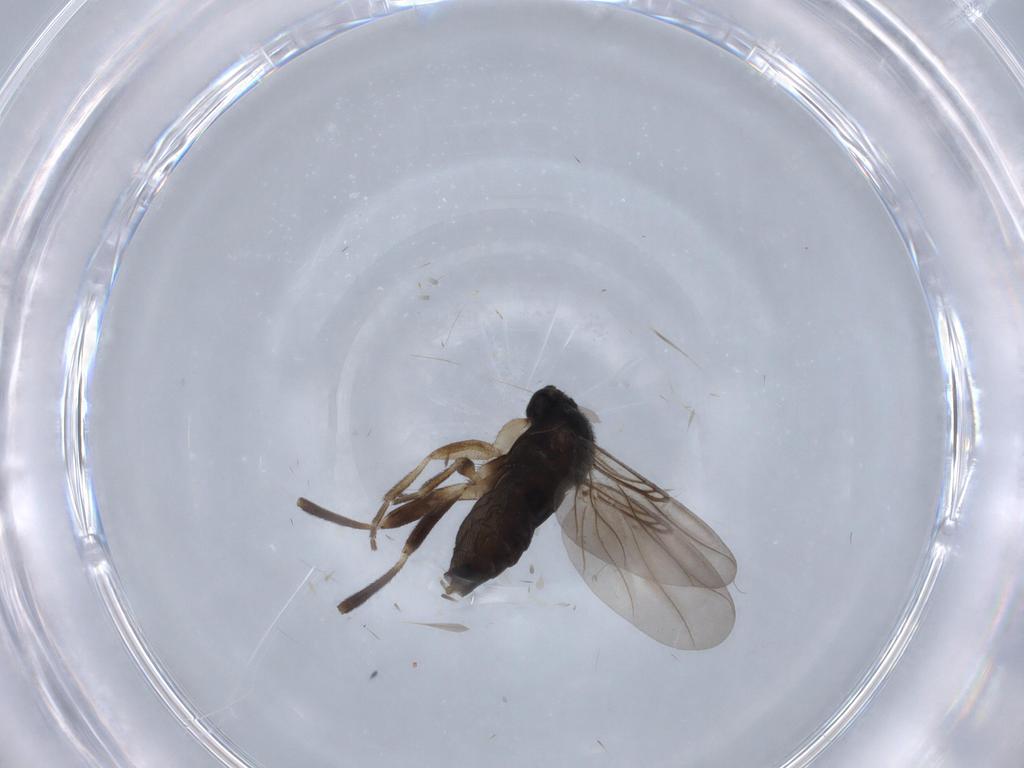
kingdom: Animalia
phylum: Arthropoda
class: Insecta
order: Diptera
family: Phoridae
